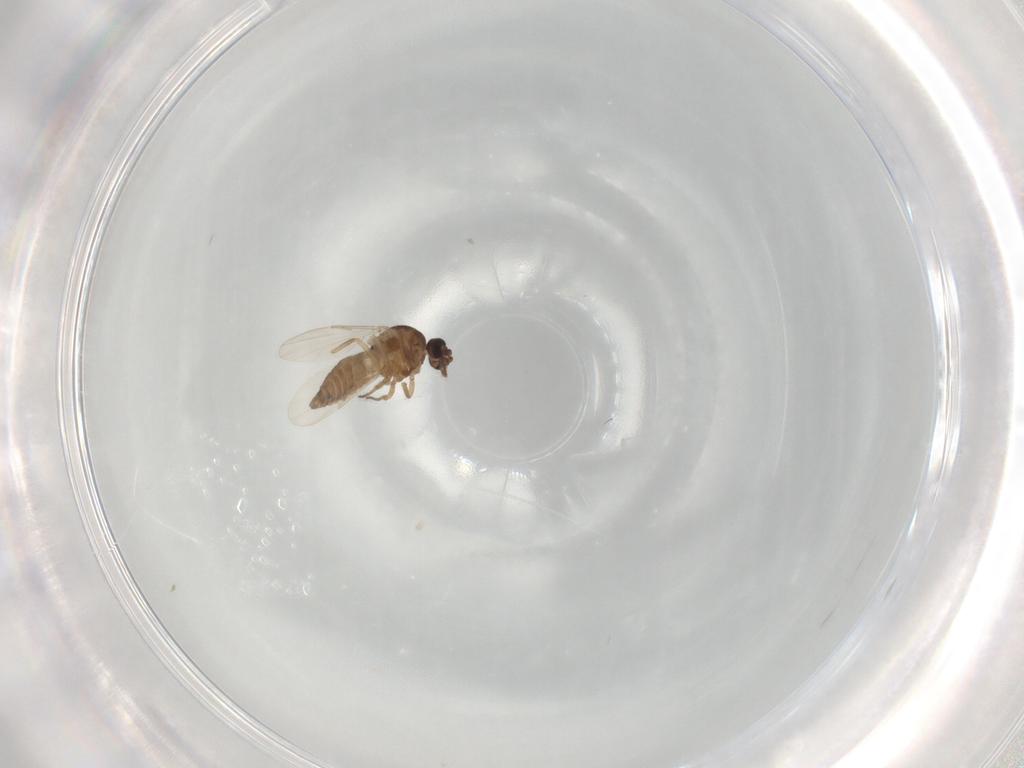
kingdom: Animalia
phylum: Arthropoda
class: Insecta
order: Diptera
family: Ceratopogonidae
